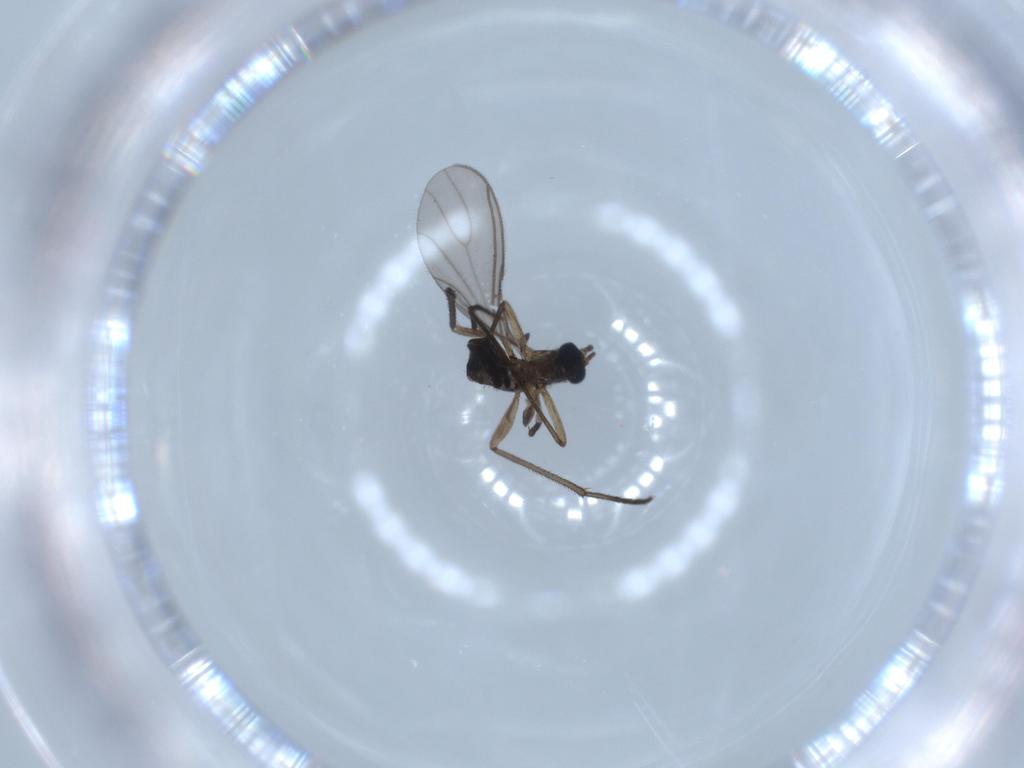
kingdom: Animalia
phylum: Arthropoda
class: Insecta
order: Diptera
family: Sciaridae
